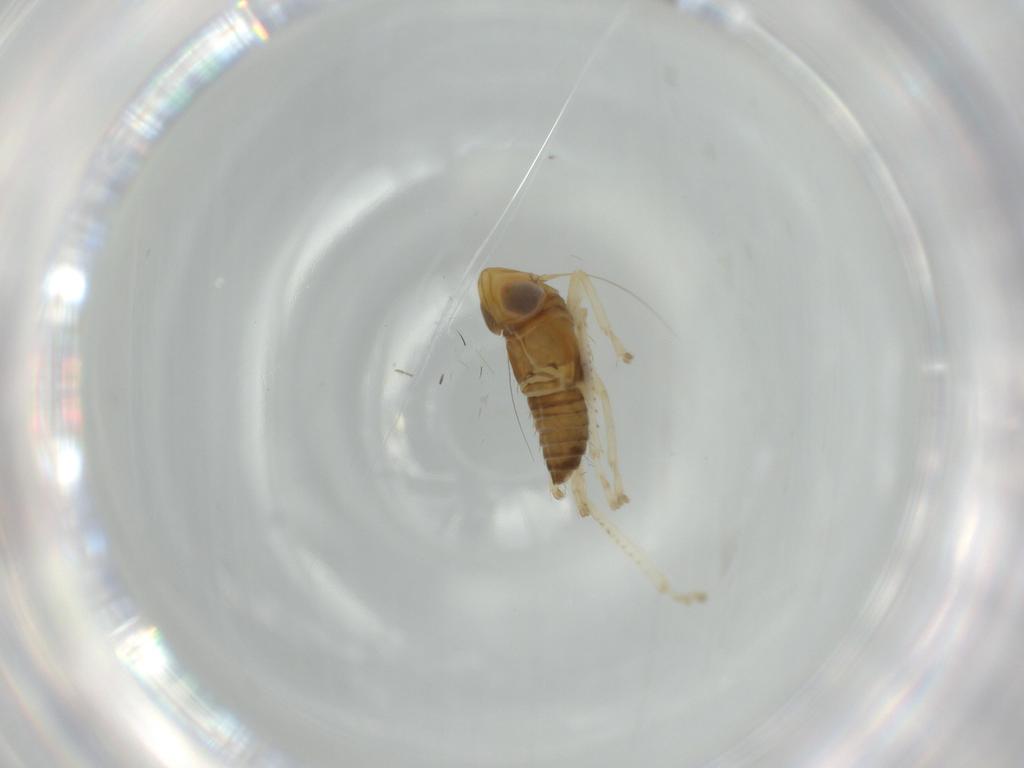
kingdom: Animalia
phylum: Arthropoda
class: Insecta
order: Hemiptera
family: Cicadellidae
